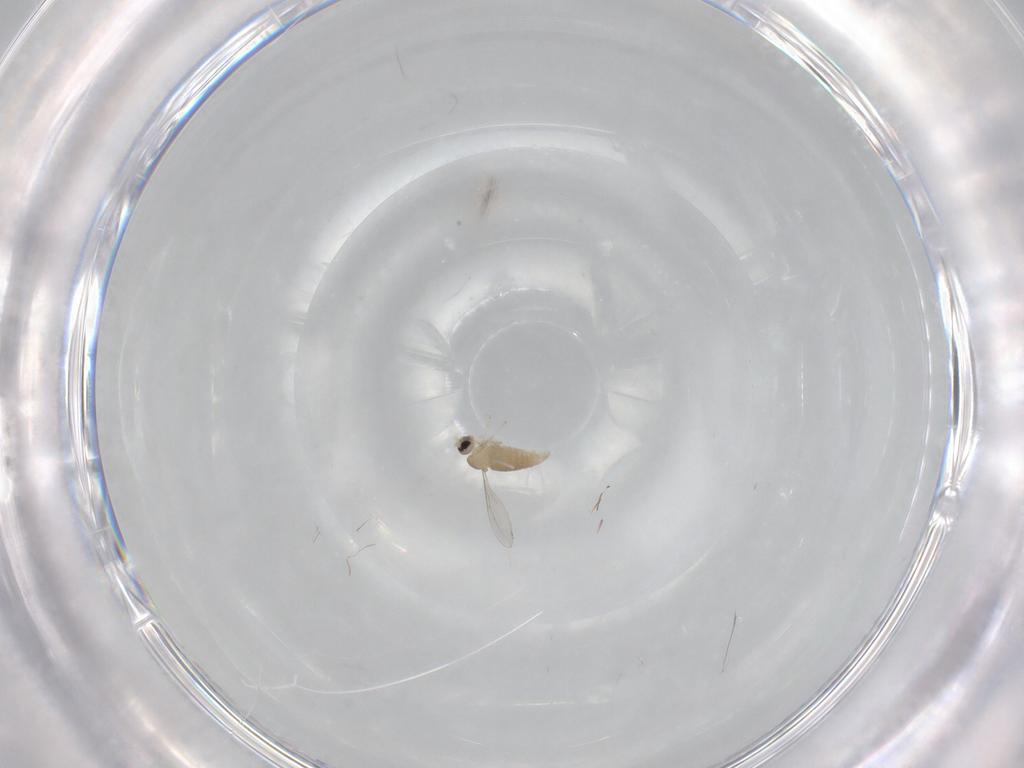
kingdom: Animalia
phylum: Arthropoda
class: Insecta
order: Diptera
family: Cecidomyiidae
